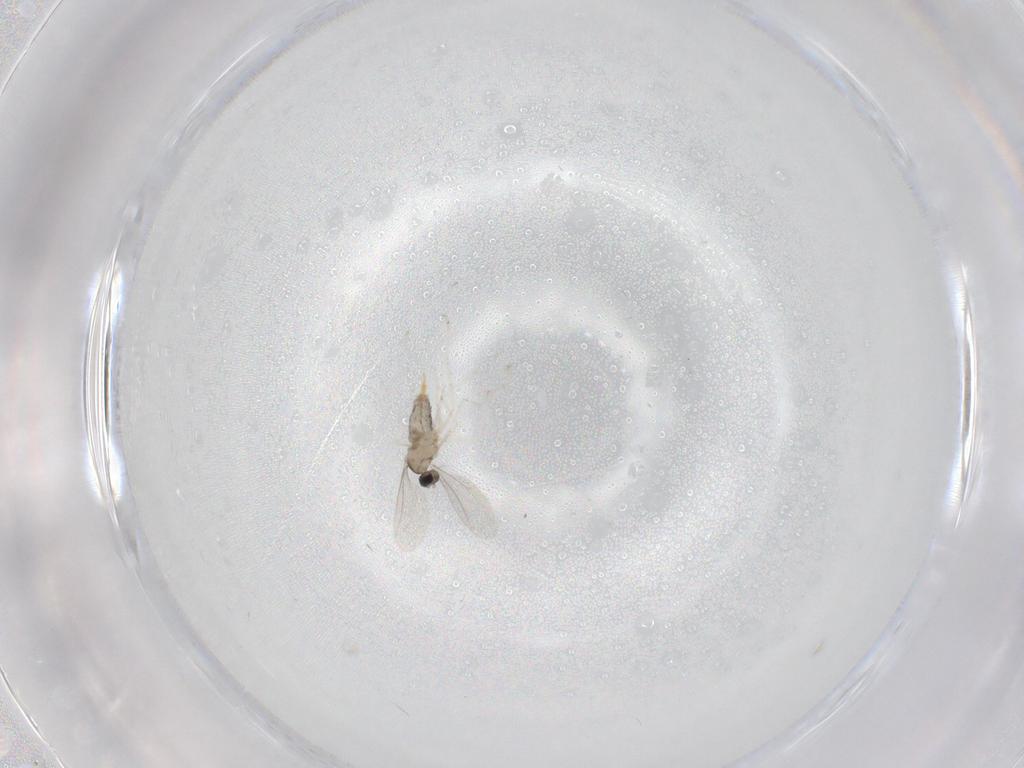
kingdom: Animalia
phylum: Arthropoda
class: Insecta
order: Diptera
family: Cecidomyiidae
